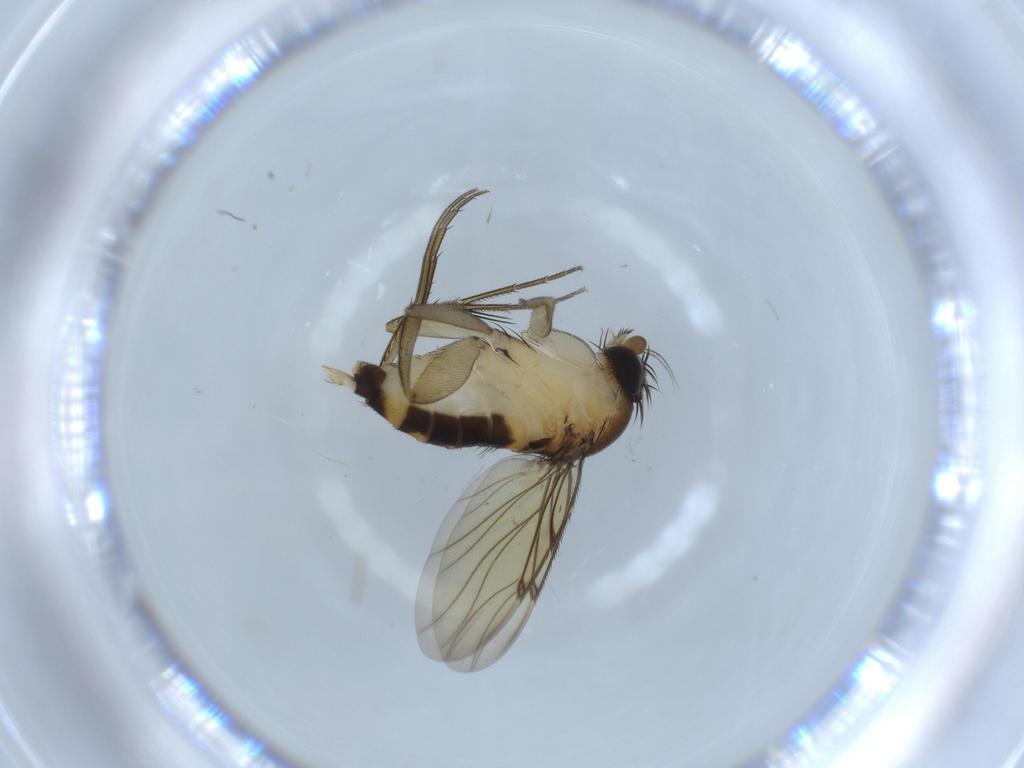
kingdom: Animalia
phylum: Arthropoda
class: Insecta
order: Diptera
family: Phoridae
